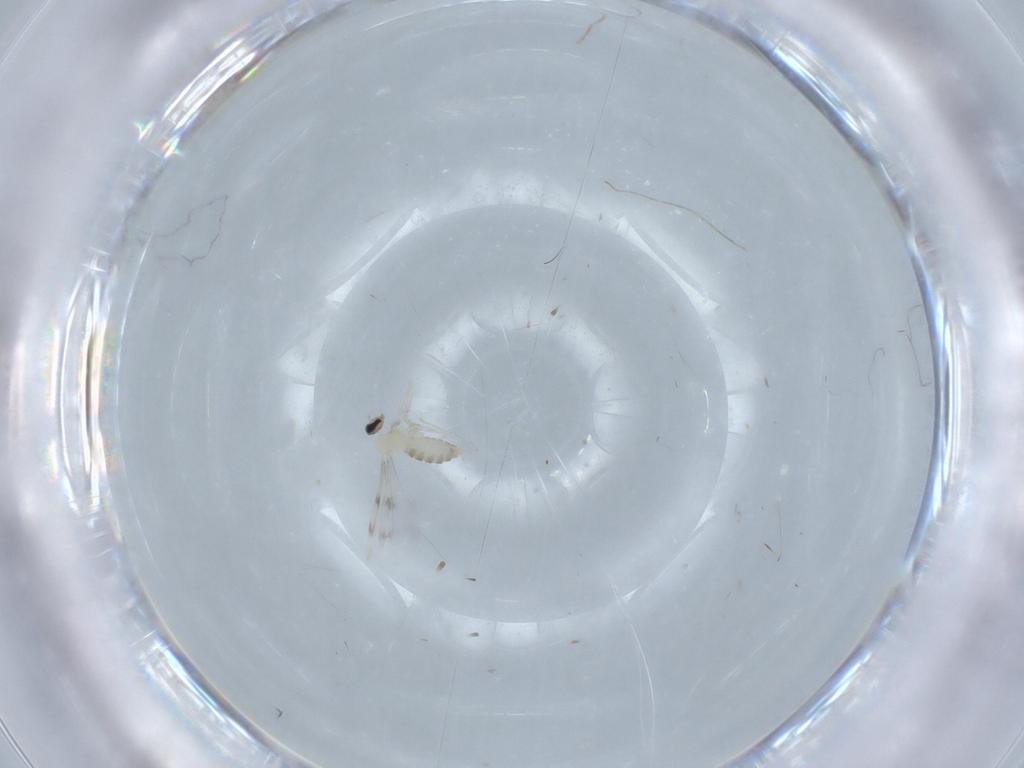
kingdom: Animalia
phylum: Arthropoda
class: Insecta
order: Diptera
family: Cecidomyiidae
